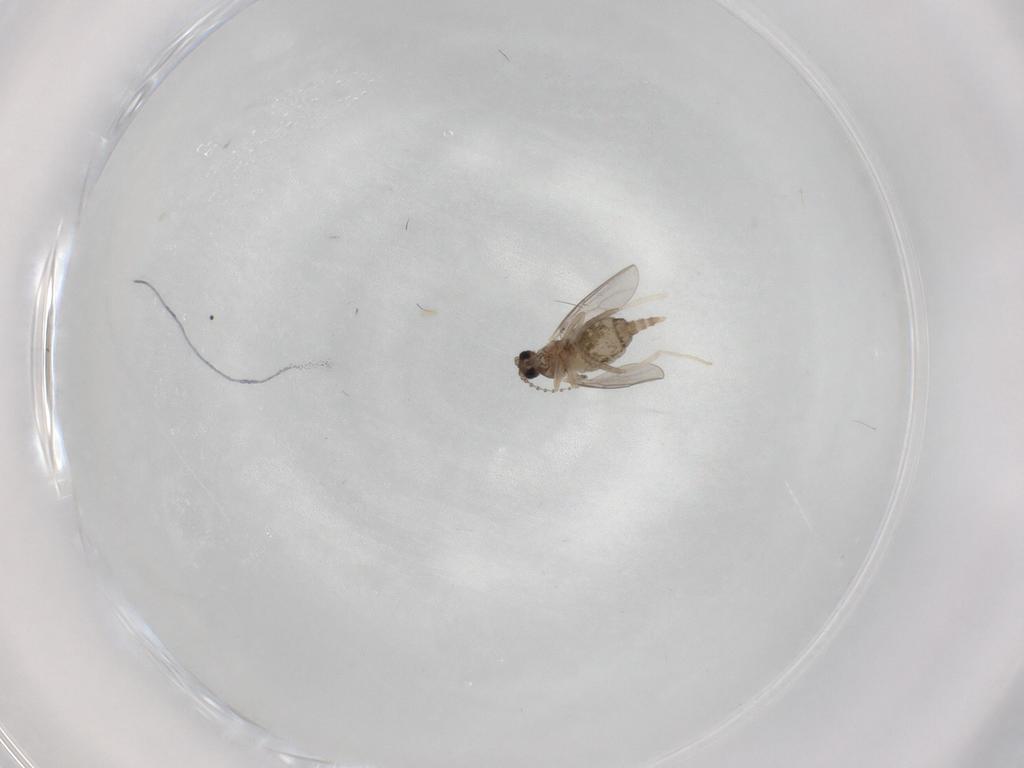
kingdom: Animalia
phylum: Arthropoda
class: Insecta
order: Diptera
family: Cecidomyiidae
